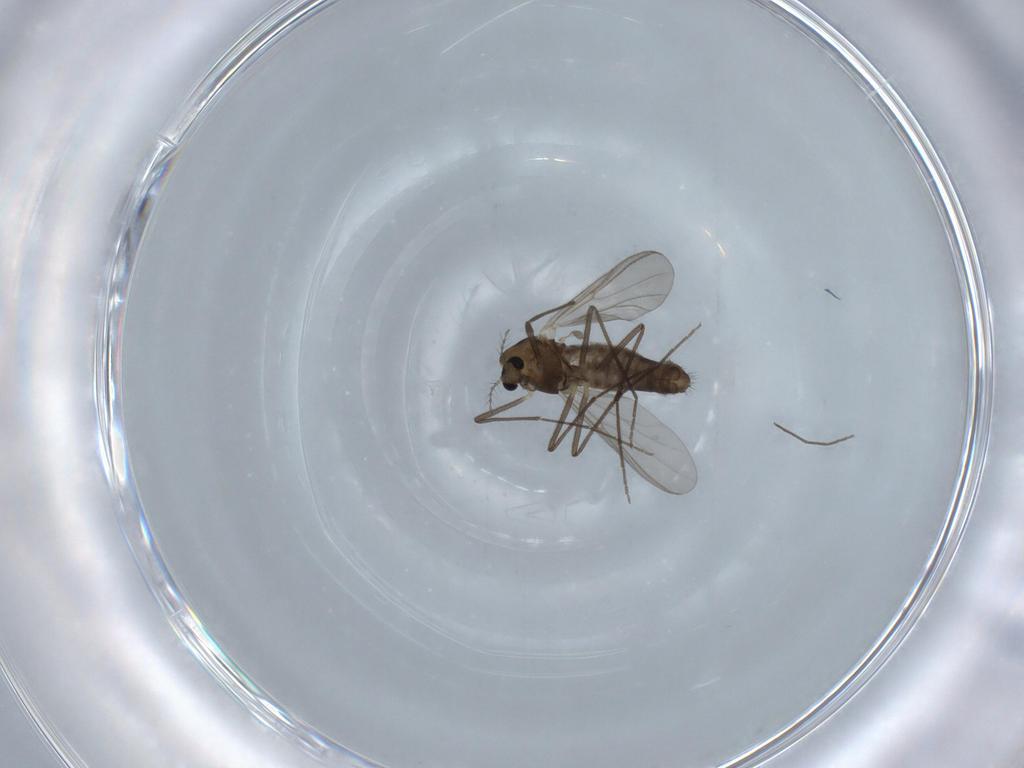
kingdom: Animalia
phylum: Arthropoda
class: Insecta
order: Diptera
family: Chironomidae
